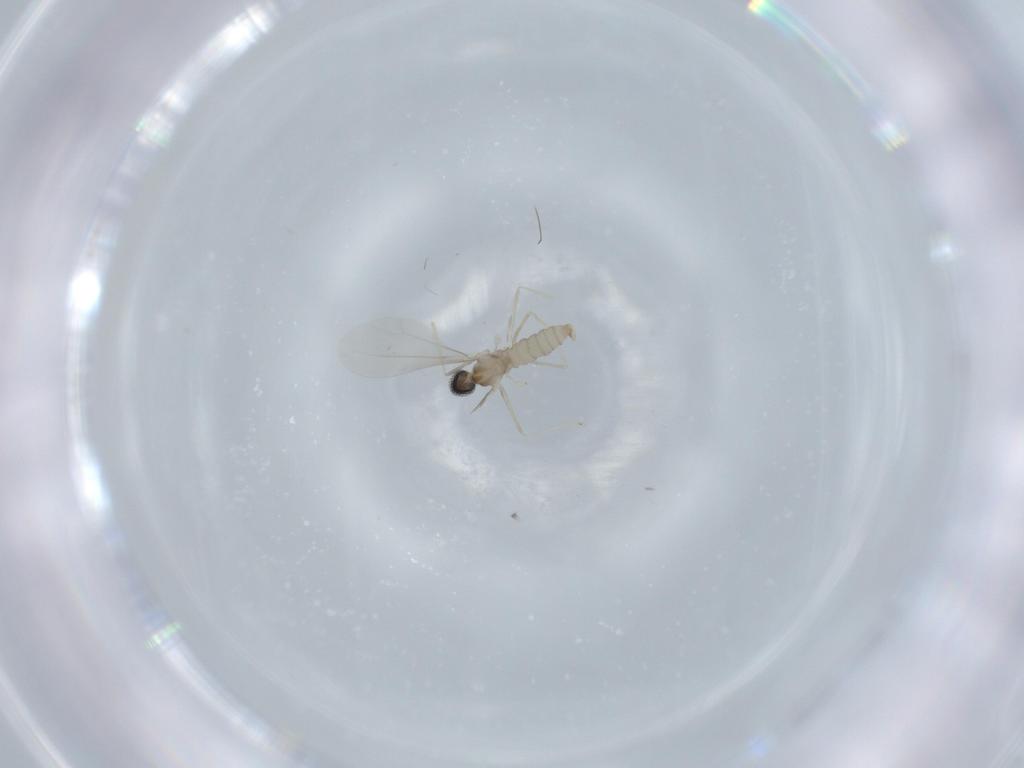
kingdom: Animalia
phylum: Arthropoda
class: Insecta
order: Diptera
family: Cecidomyiidae
